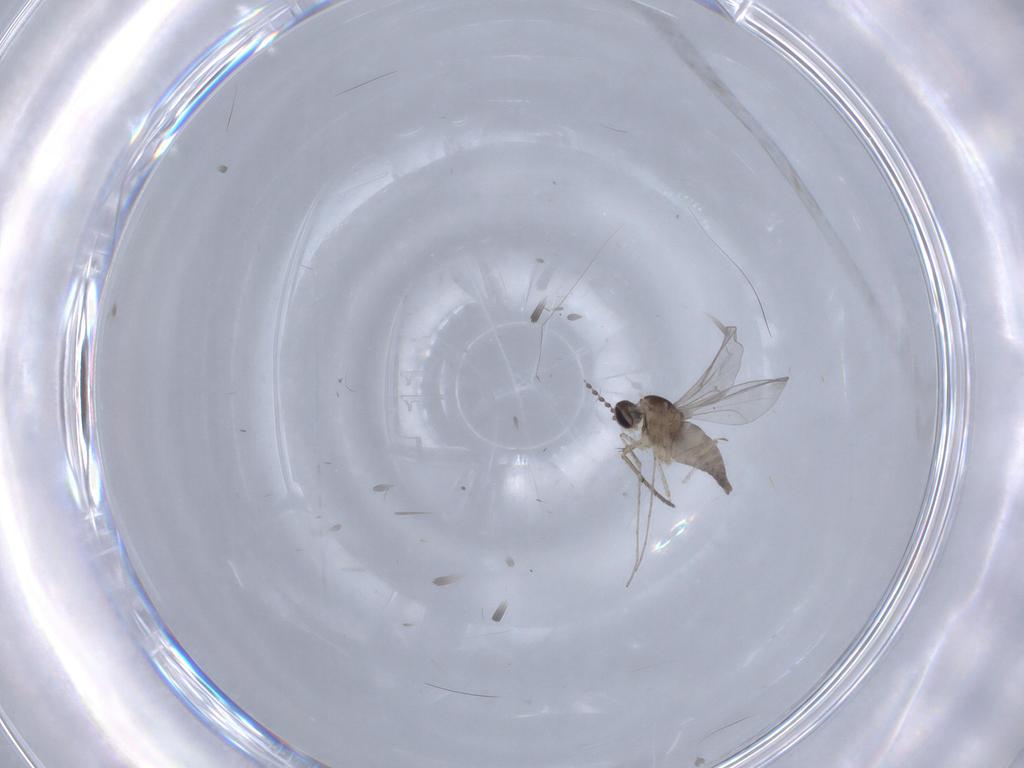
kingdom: Animalia
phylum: Arthropoda
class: Insecta
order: Diptera
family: Cecidomyiidae
